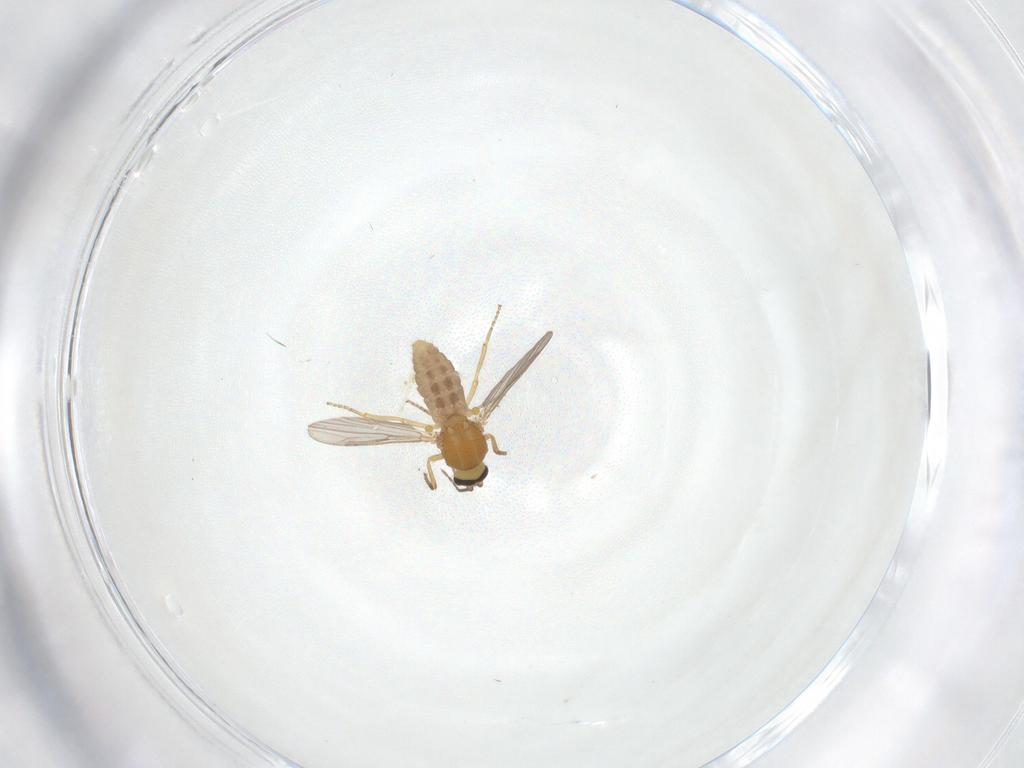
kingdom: Animalia
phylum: Arthropoda
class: Insecta
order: Diptera
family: Ceratopogonidae
